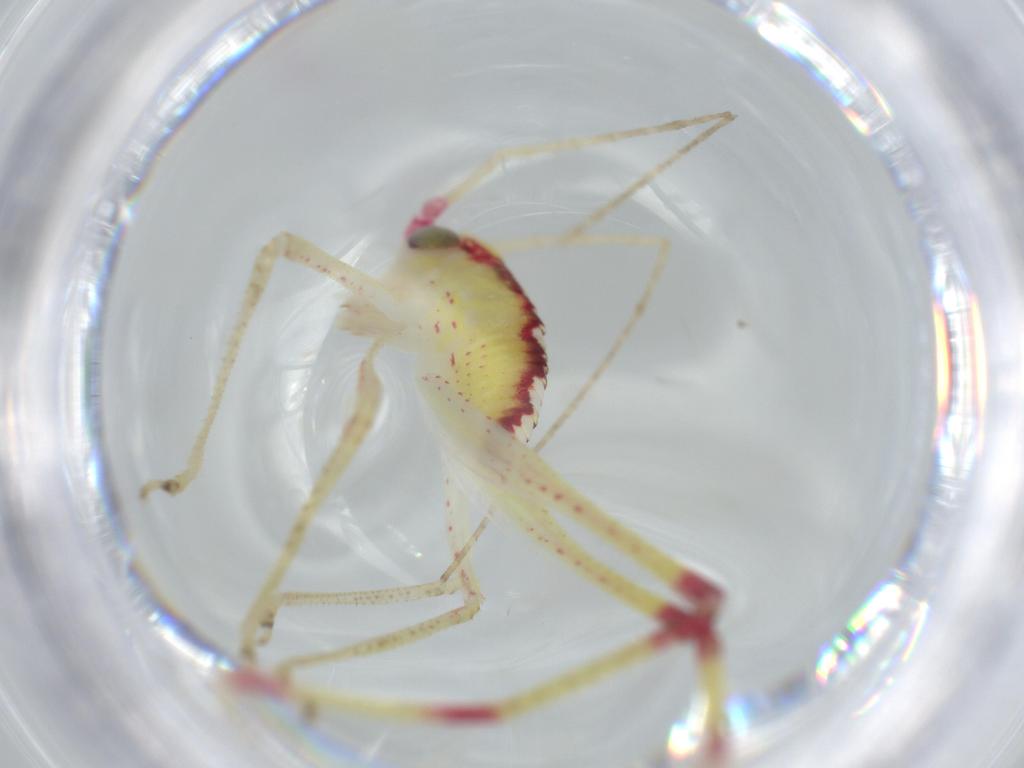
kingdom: Animalia
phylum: Arthropoda
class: Insecta
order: Orthoptera
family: Tettigoniidae
